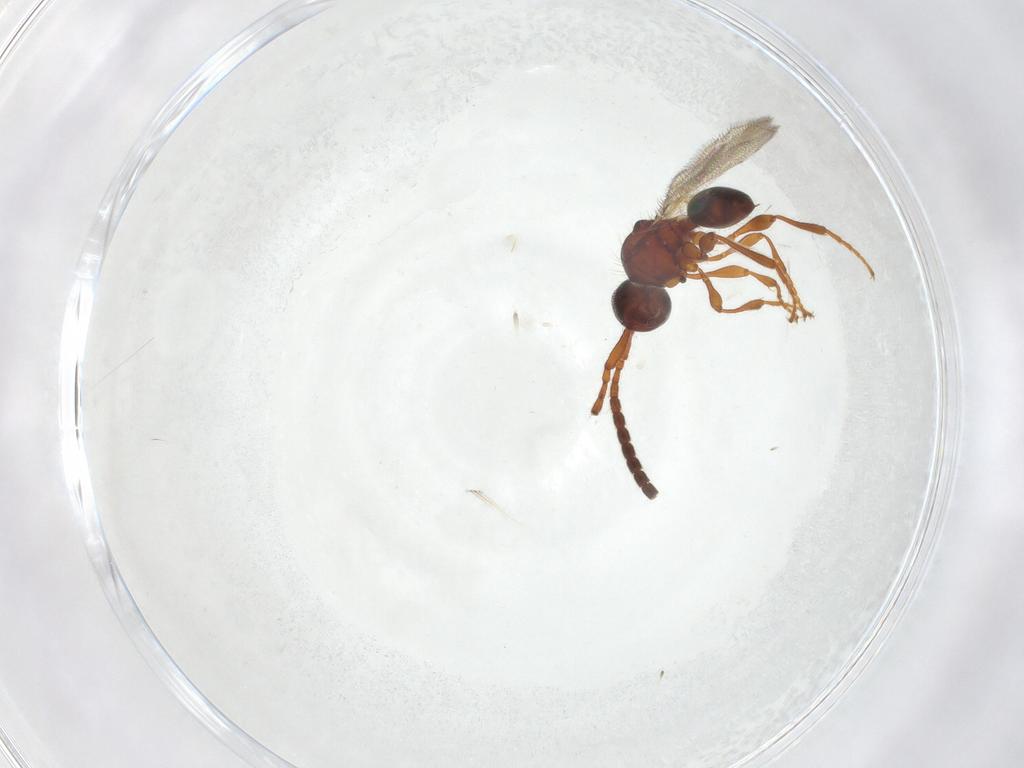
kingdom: Animalia
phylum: Arthropoda
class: Insecta
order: Hymenoptera
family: Diapriidae
